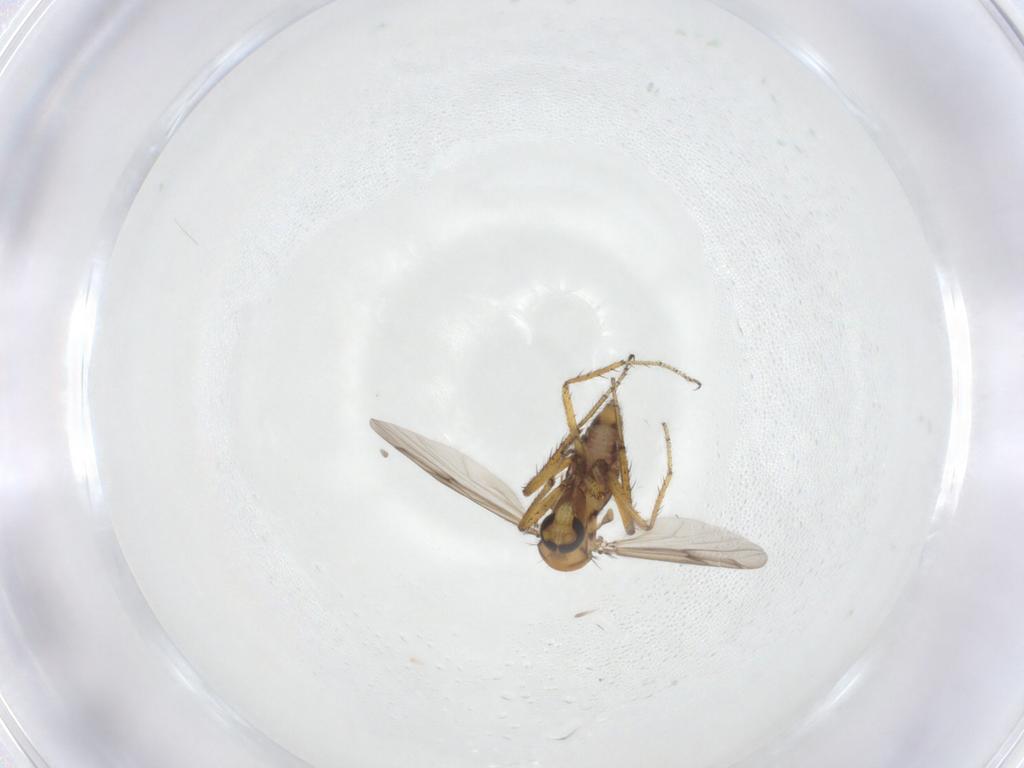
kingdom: Animalia
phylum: Arthropoda
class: Insecta
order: Diptera
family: Ceratopogonidae
